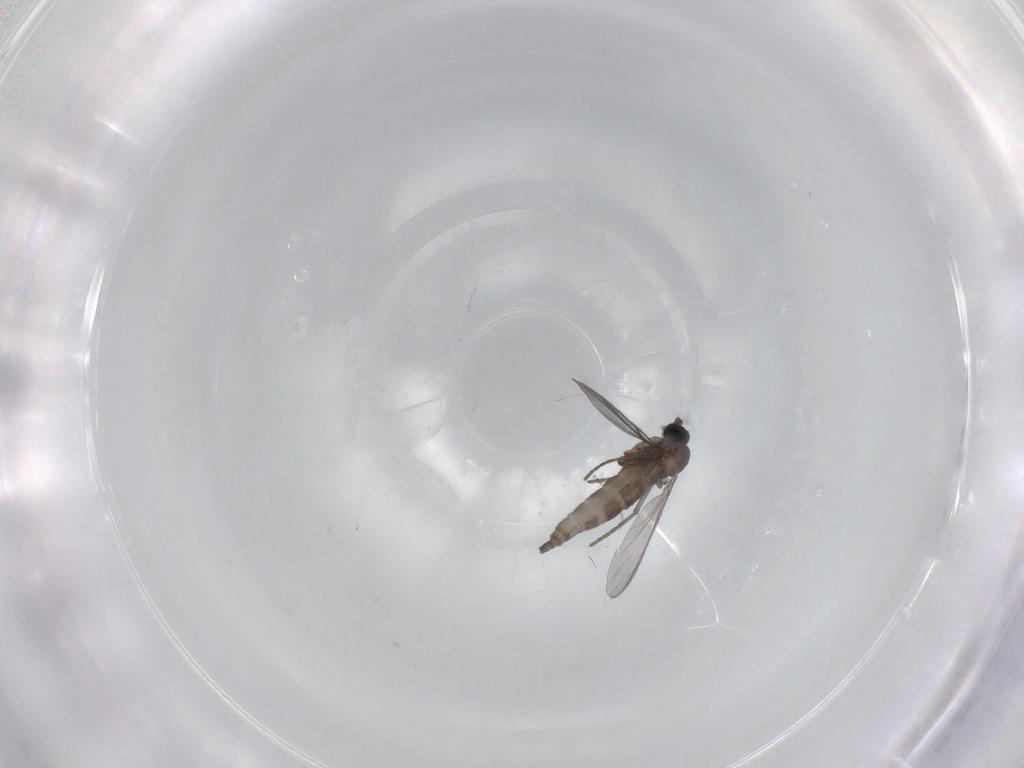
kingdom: Animalia
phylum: Arthropoda
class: Insecta
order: Diptera
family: Sciaridae
